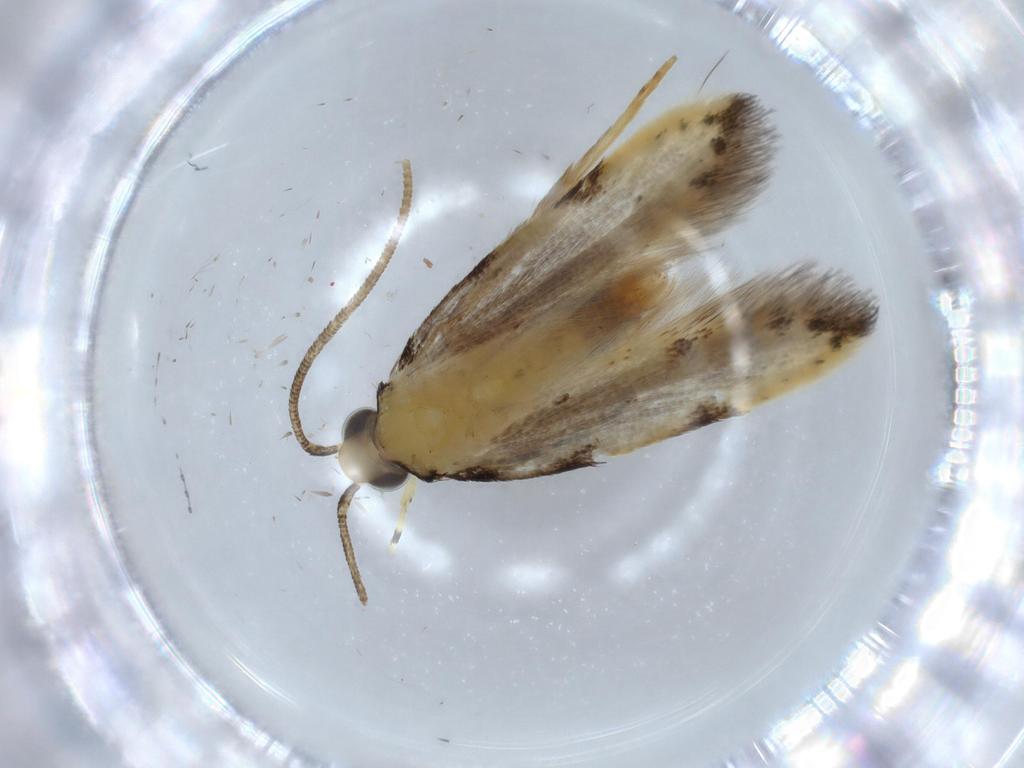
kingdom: Animalia
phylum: Arthropoda
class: Insecta
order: Lepidoptera
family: Autostichidae
